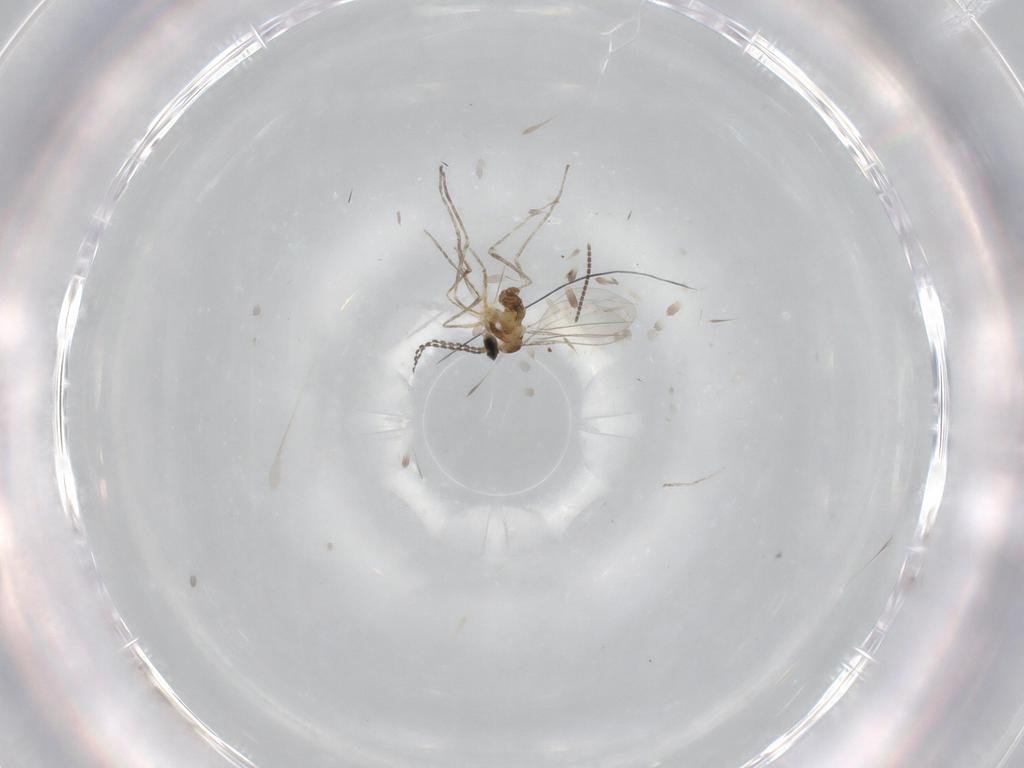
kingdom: Animalia
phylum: Arthropoda
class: Insecta
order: Diptera
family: Cecidomyiidae
